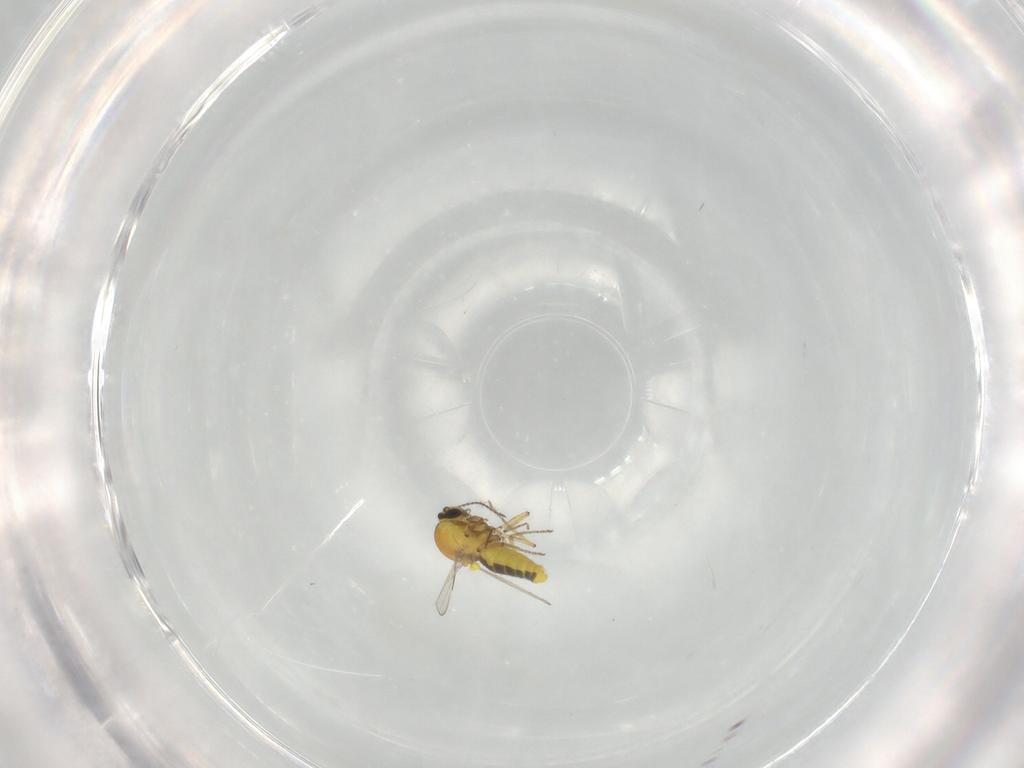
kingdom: Animalia
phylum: Arthropoda
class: Insecta
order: Diptera
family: Ceratopogonidae
